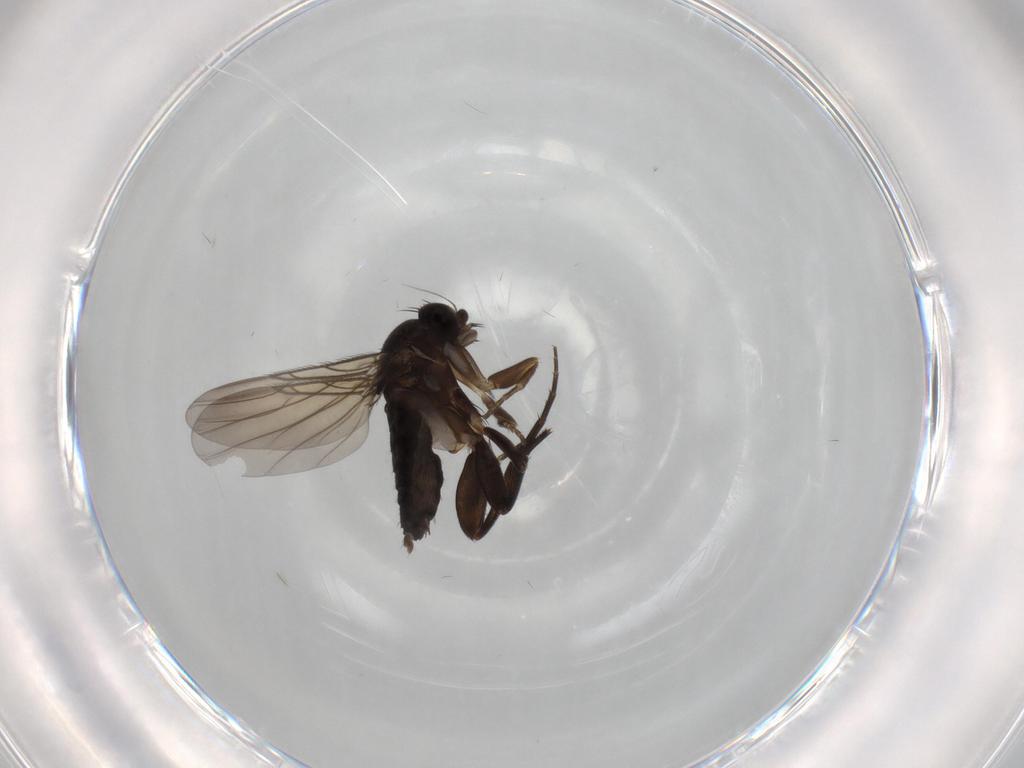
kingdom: Animalia
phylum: Arthropoda
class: Insecta
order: Diptera
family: Phoridae
